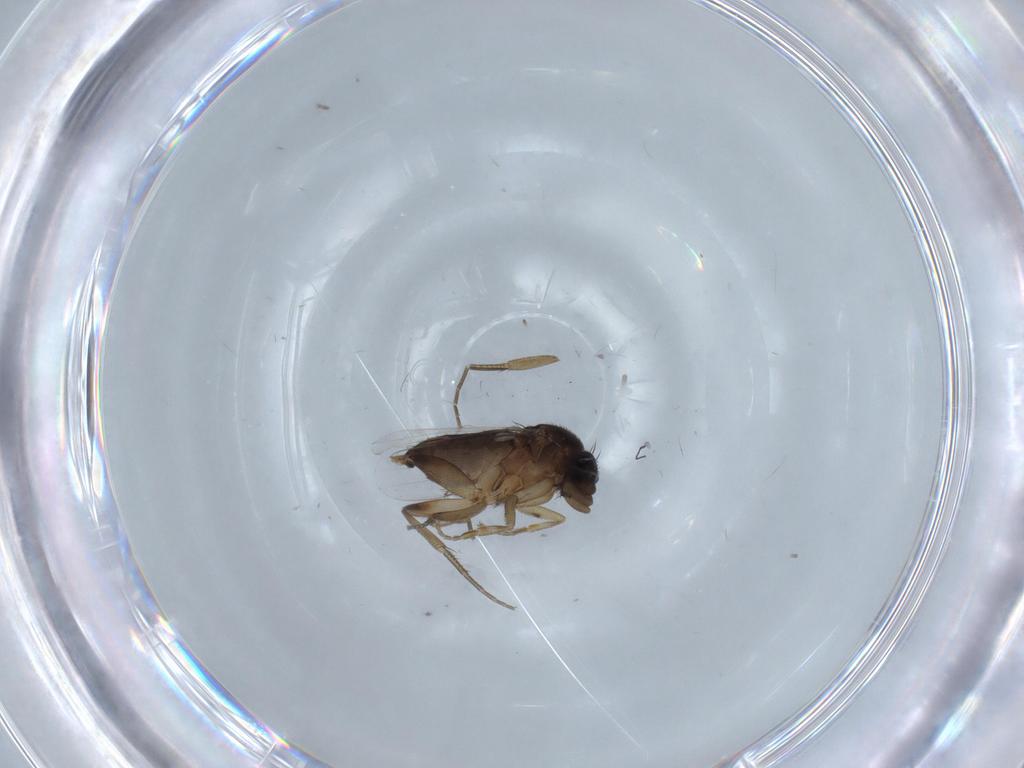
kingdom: Animalia
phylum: Arthropoda
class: Insecta
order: Diptera
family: Phoridae
